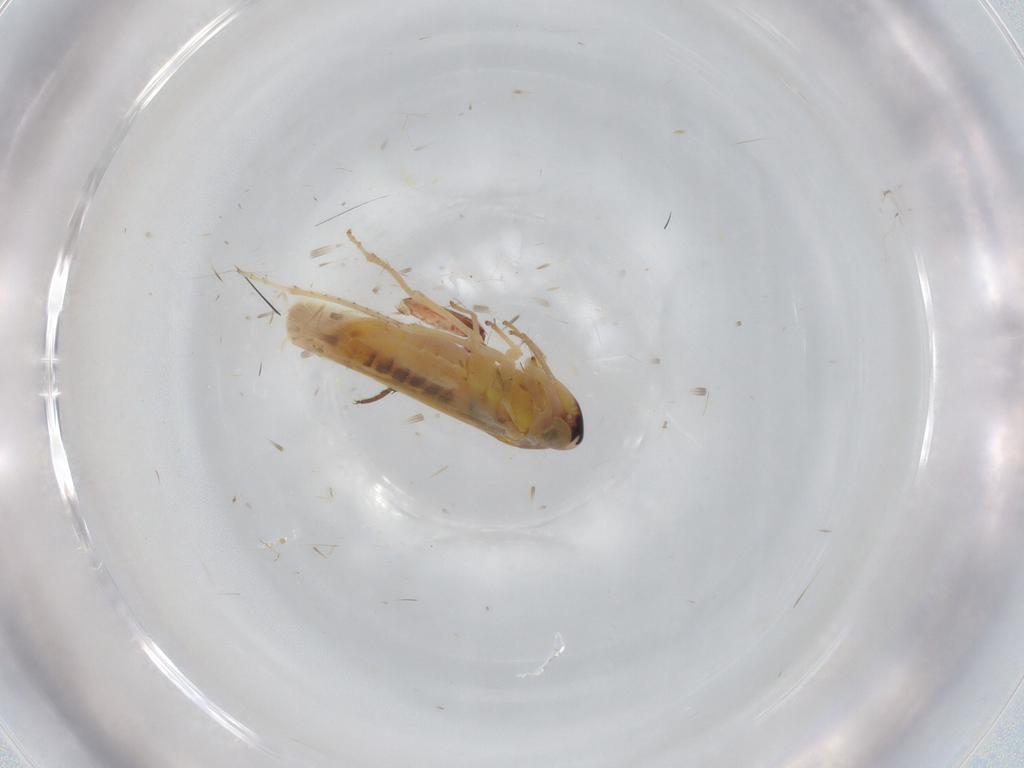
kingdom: Animalia
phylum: Arthropoda
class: Insecta
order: Hemiptera
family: Cicadellidae
